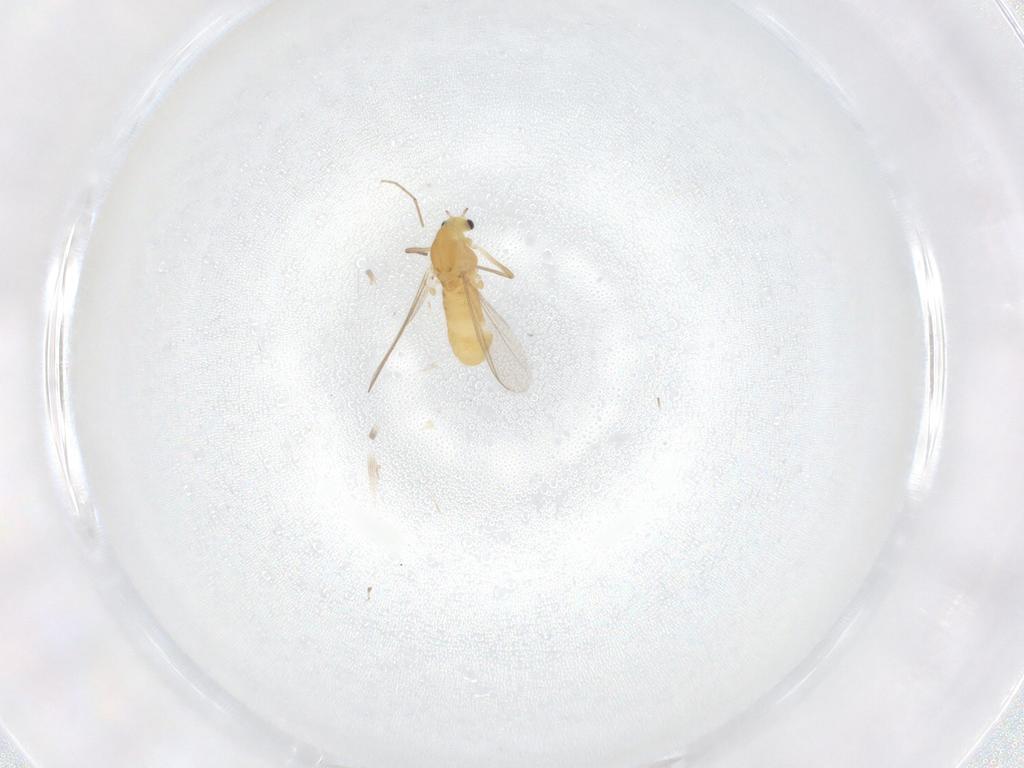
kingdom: Animalia
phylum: Arthropoda
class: Insecta
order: Diptera
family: Chironomidae
